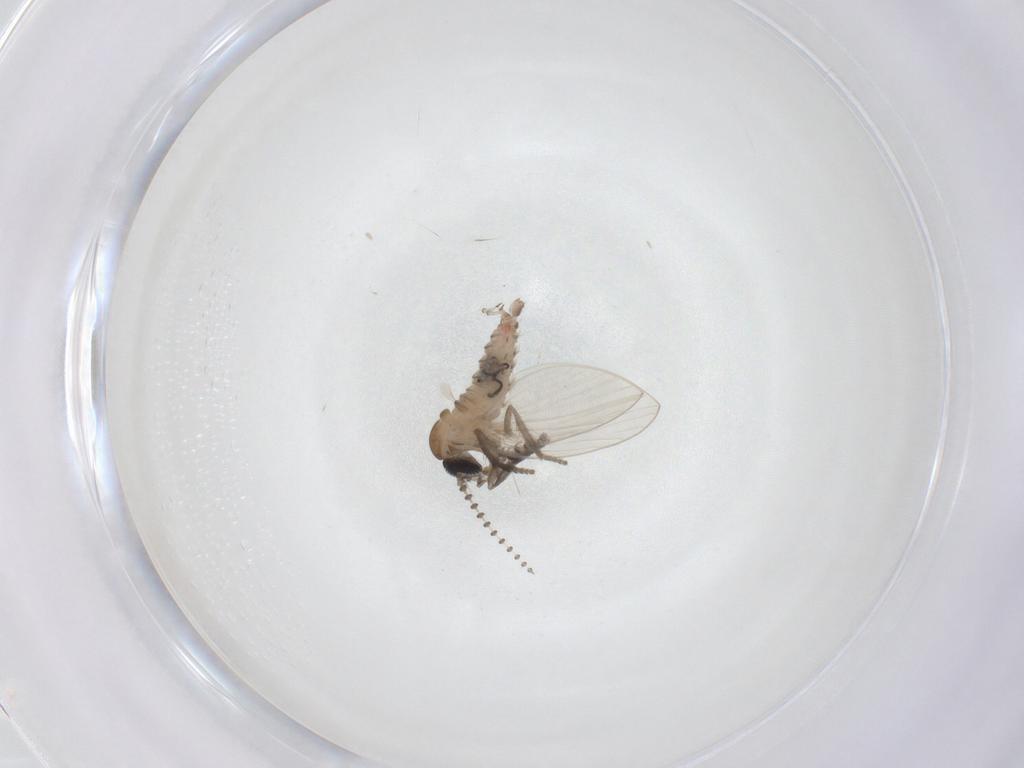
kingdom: Animalia
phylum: Arthropoda
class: Insecta
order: Diptera
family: Psychodidae
